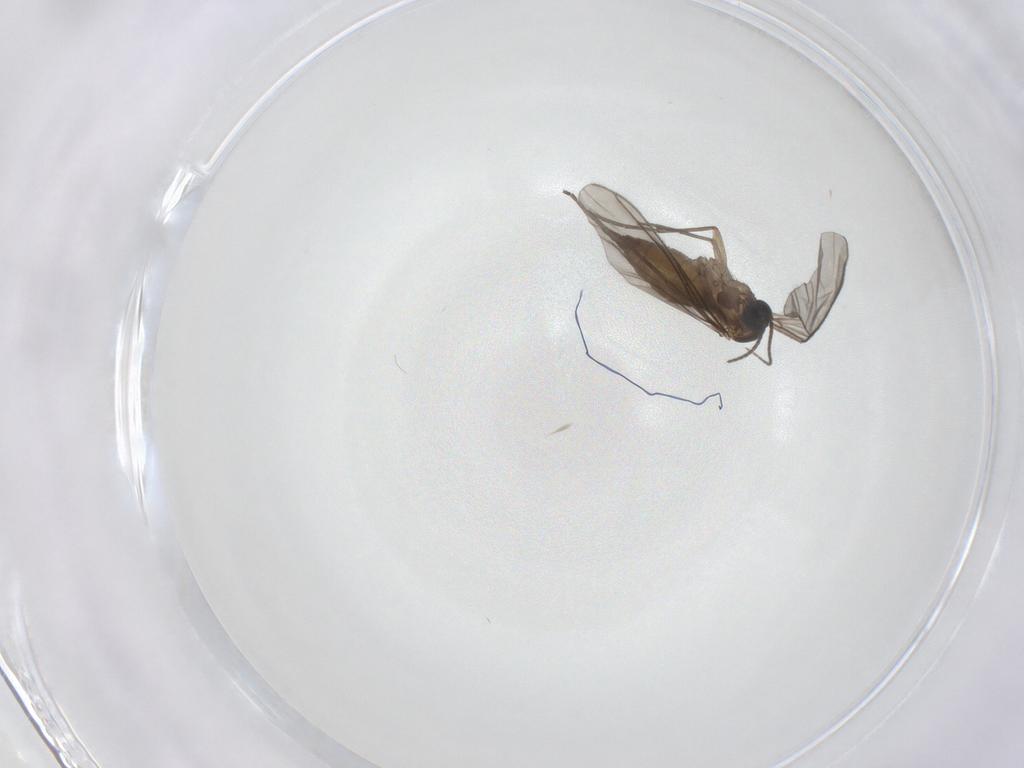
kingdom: Animalia
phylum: Arthropoda
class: Insecta
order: Diptera
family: Sciaridae
